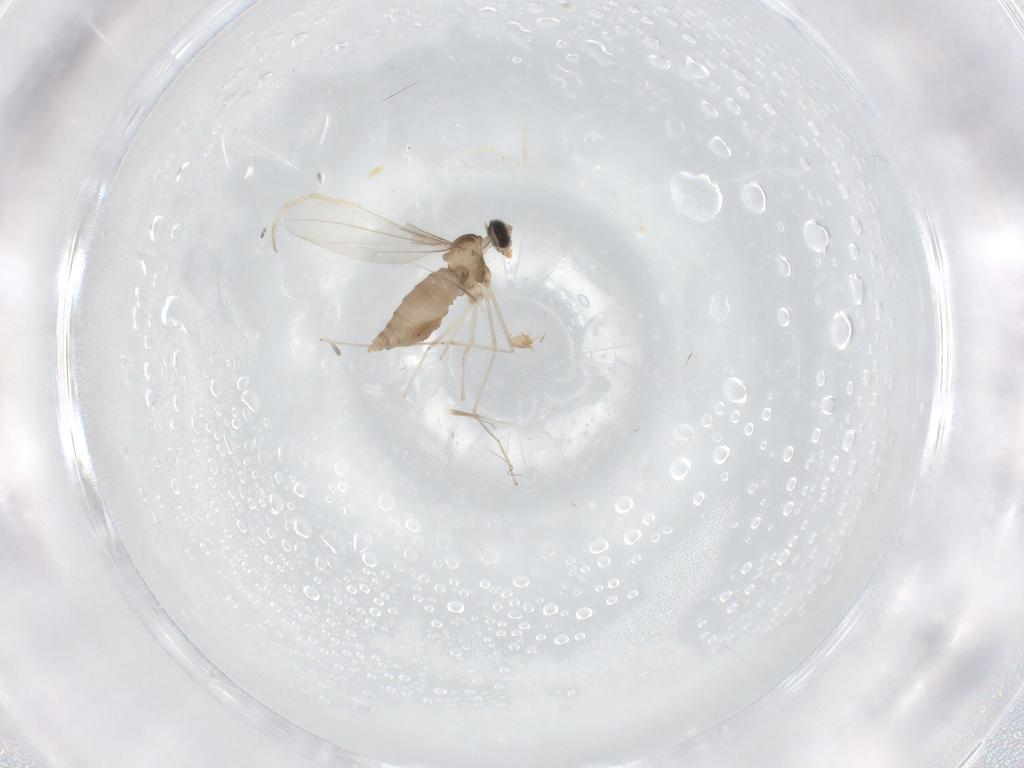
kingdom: Animalia
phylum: Arthropoda
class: Insecta
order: Diptera
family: Chironomidae
